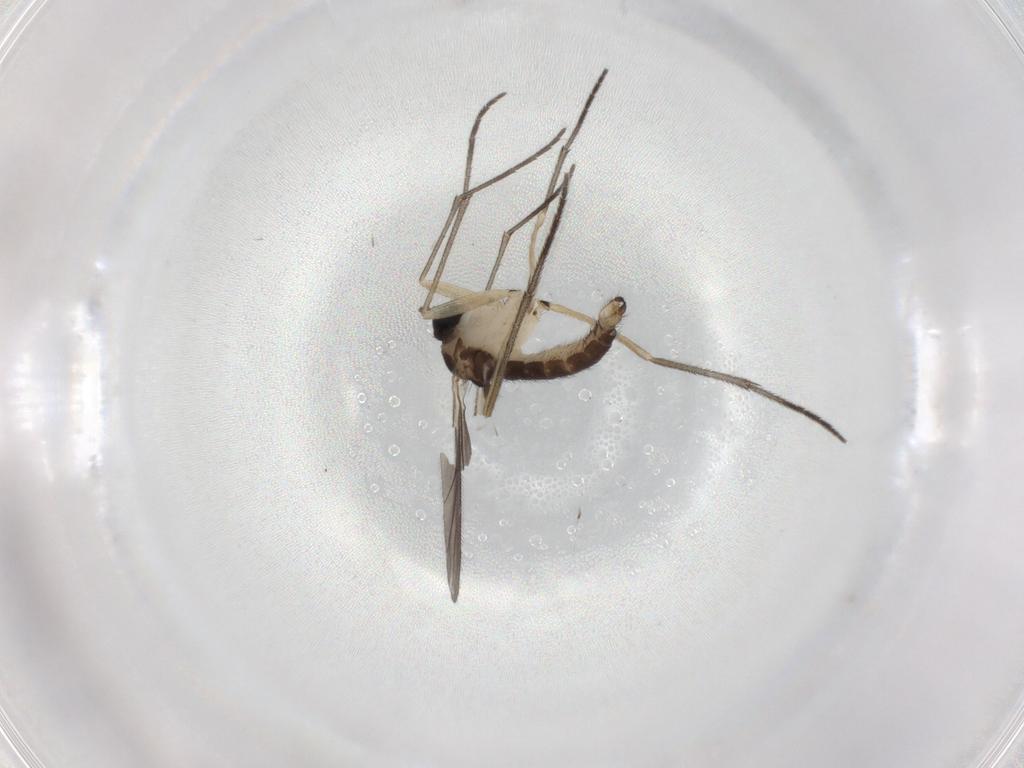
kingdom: Animalia
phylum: Arthropoda
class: Insecta
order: Diptera
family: Sciaridae
